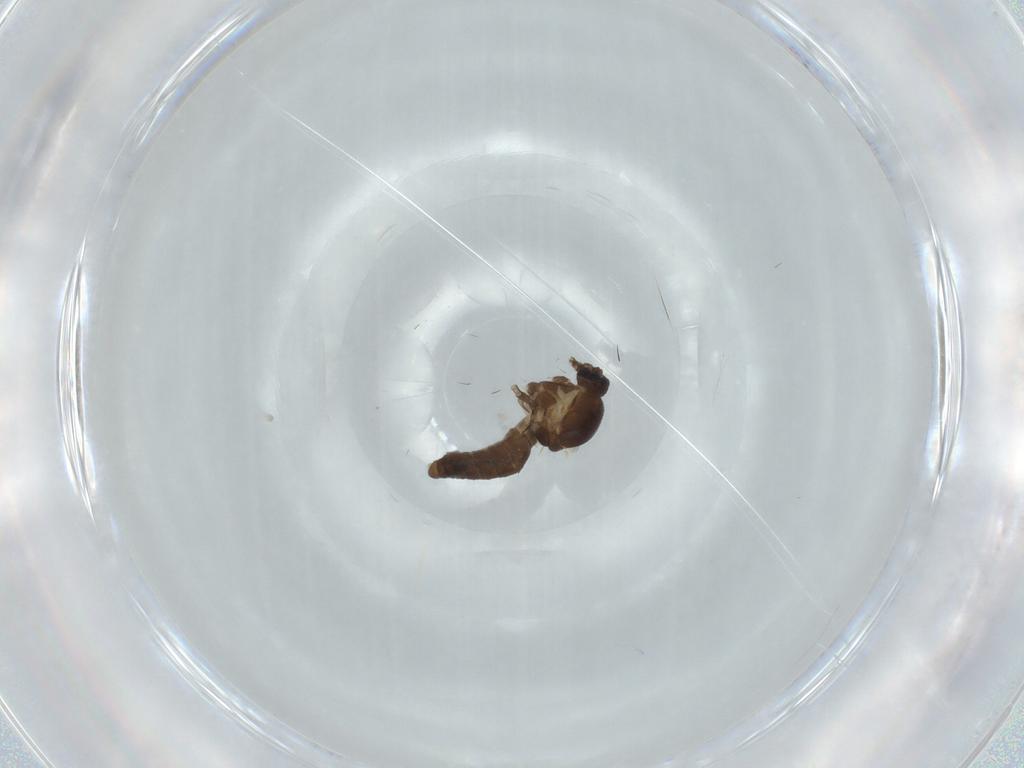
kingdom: Animalia
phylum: Arthropoda
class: Insecta
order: Diptera
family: Ceratopogonidae
